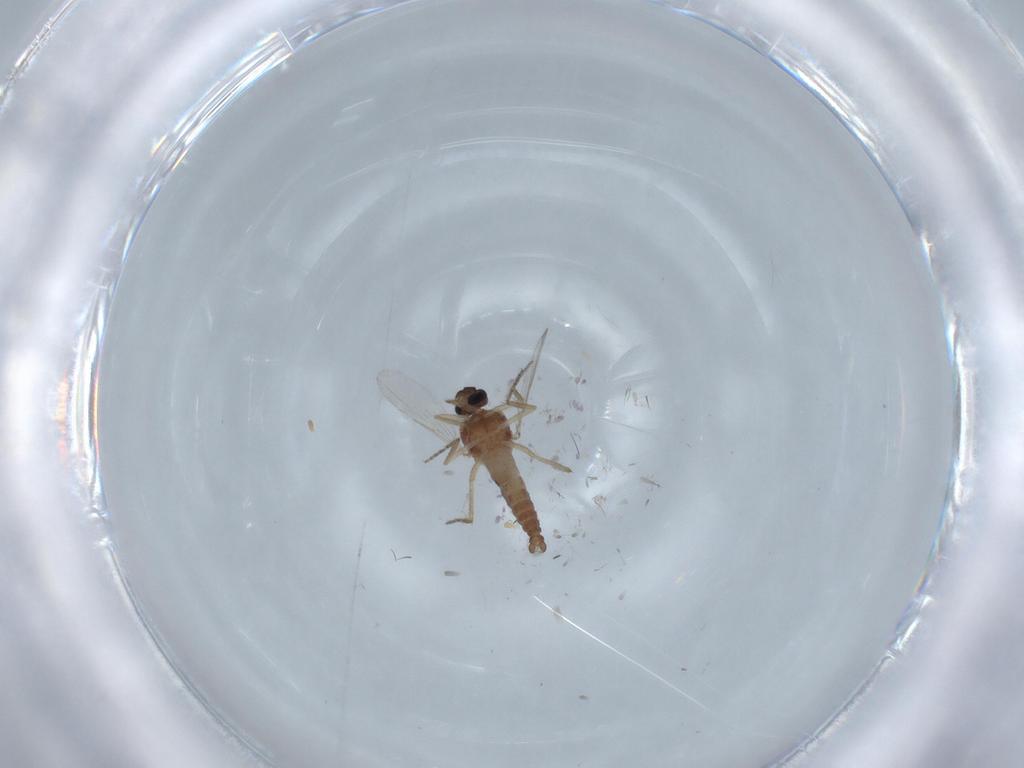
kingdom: Animalia
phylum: Arthropoda
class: Insecta
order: Diptera
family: Ceratopogonidae
